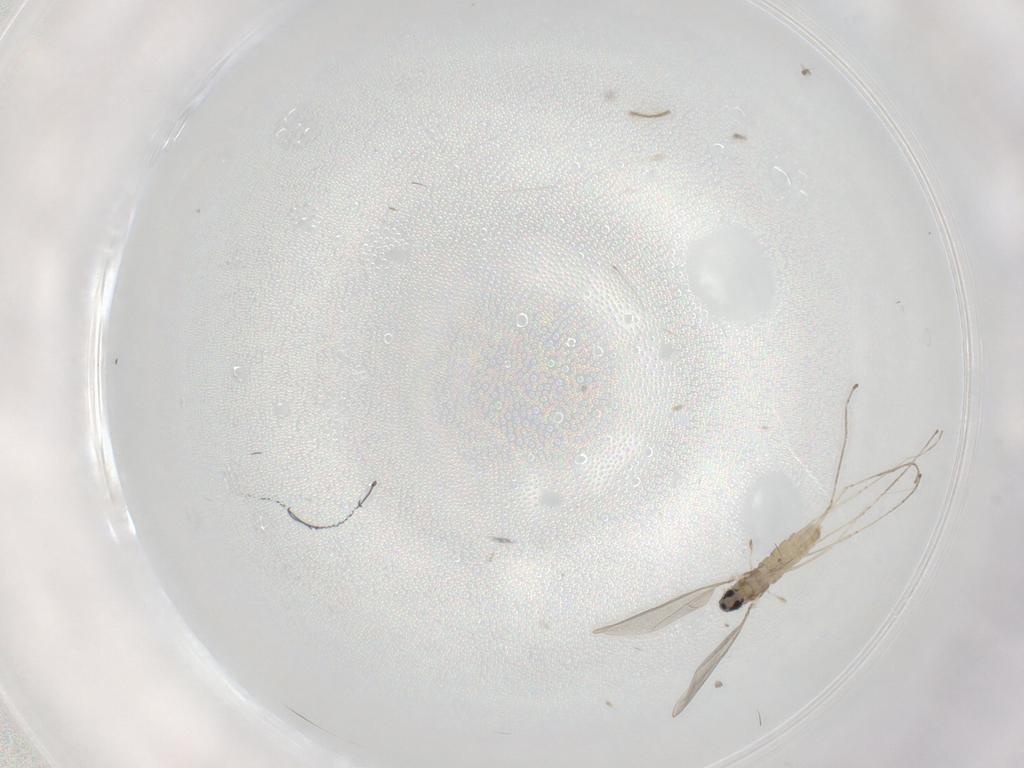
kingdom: Animalia
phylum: Arthropoda
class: Insecta
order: Diptera
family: Cecidomyiidae
